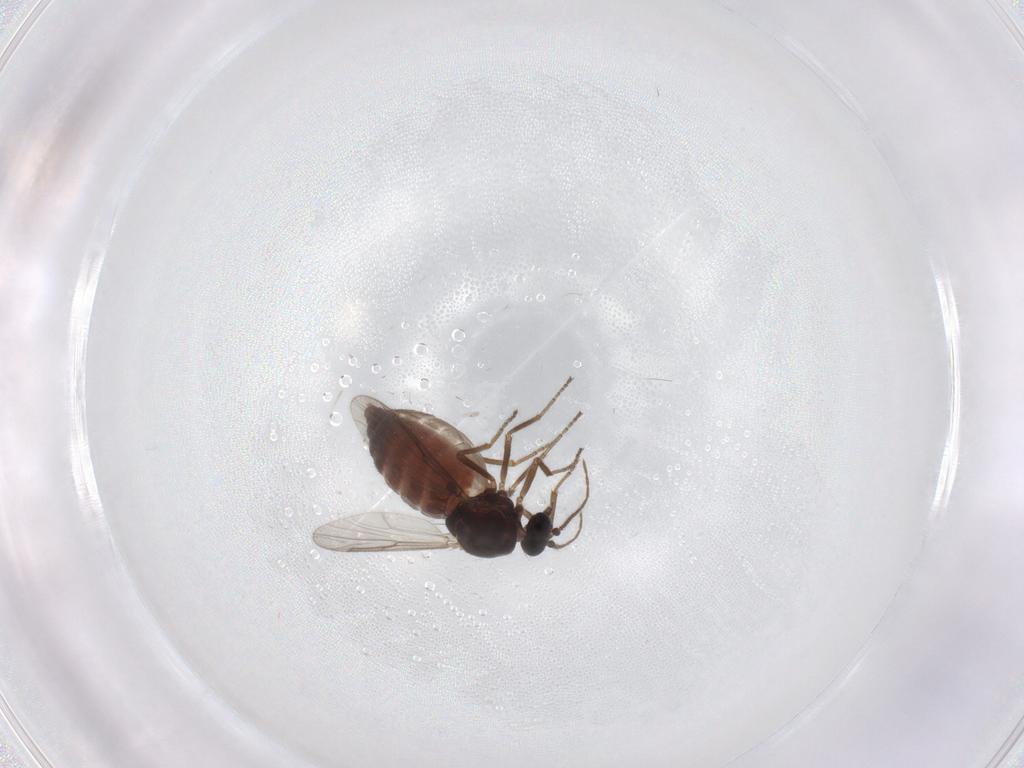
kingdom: Animalia
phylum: Arthropoda
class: Insecta
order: Diptera
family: Ceratopogonidae
